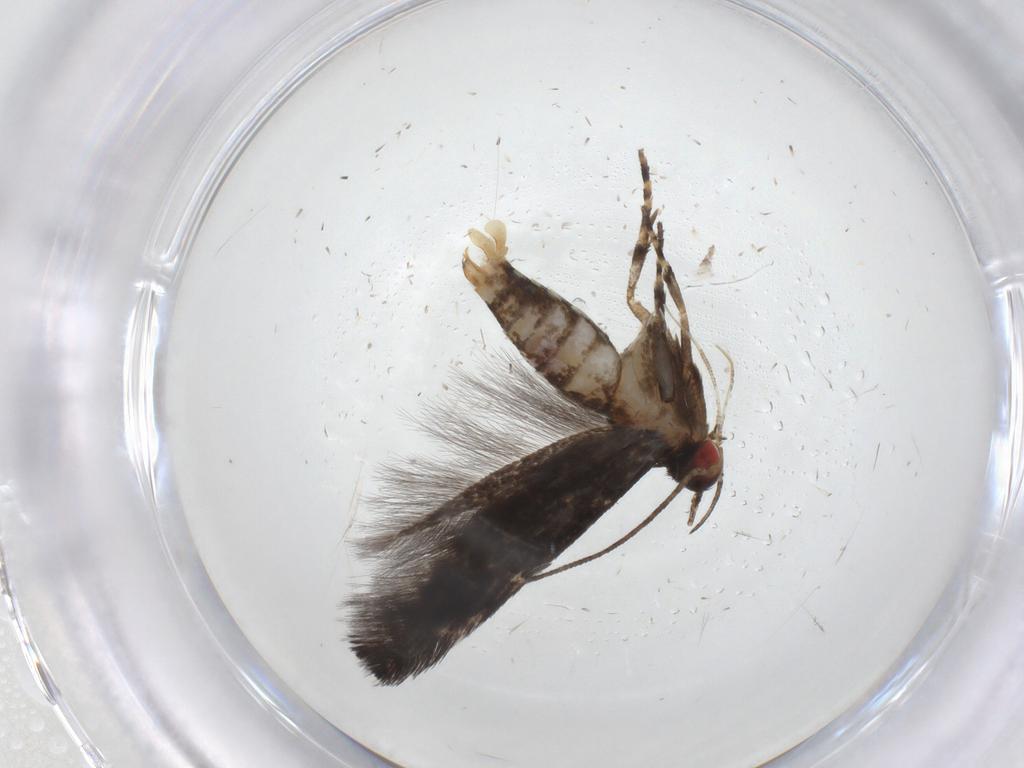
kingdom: Animalia
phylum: Arthropoda
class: Insecta
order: Lepidoptera
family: Cosmopterigidae
